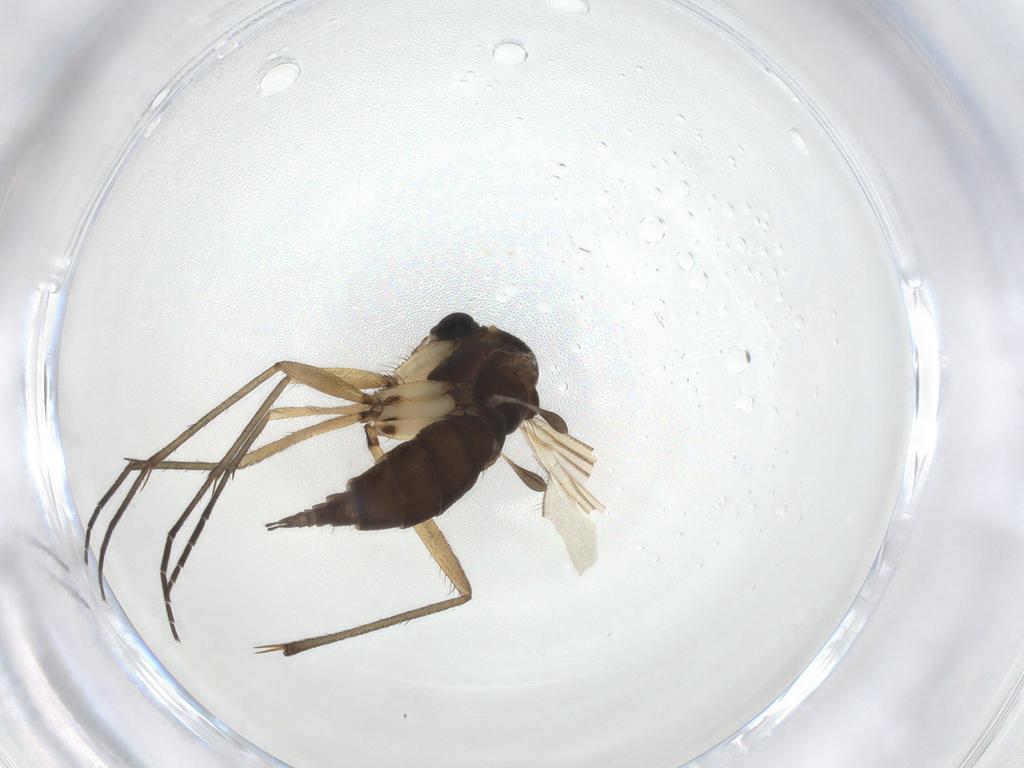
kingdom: Animalia
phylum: Arthropoda
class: Insecta
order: Diptera
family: Sciaridae
